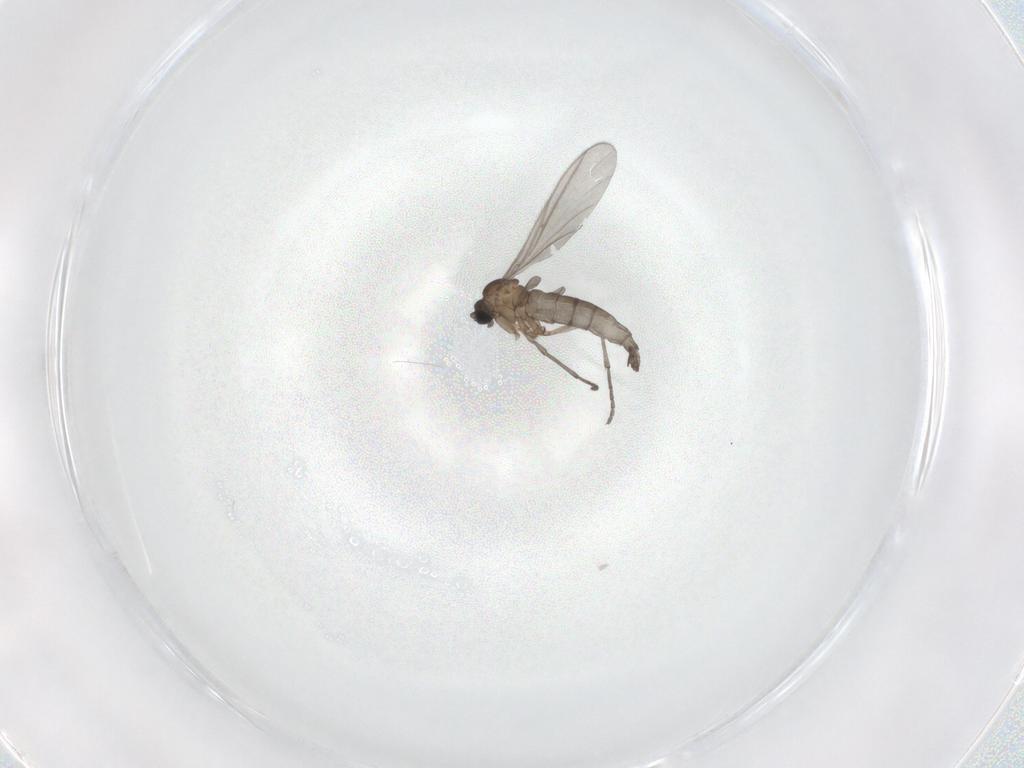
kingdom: Animalia
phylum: Arthropoda
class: Insecta
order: Diptera
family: Sciaridae
